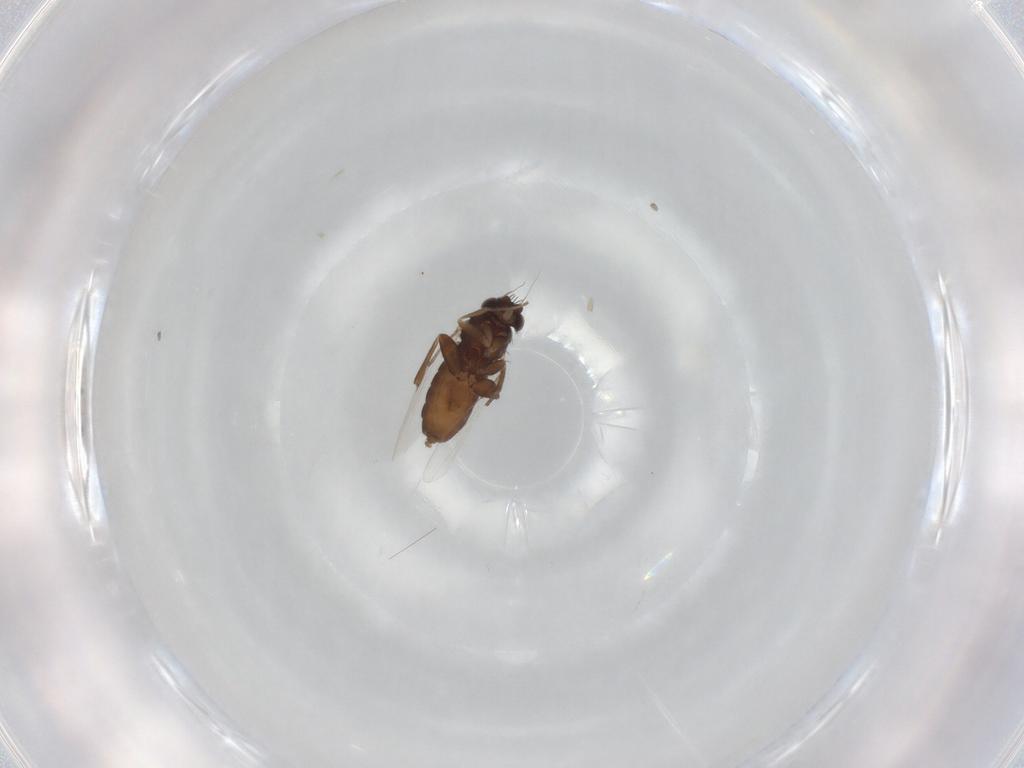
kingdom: Animalia
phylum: Arthropoda
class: Insecta
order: Diptera
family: Phoridae
